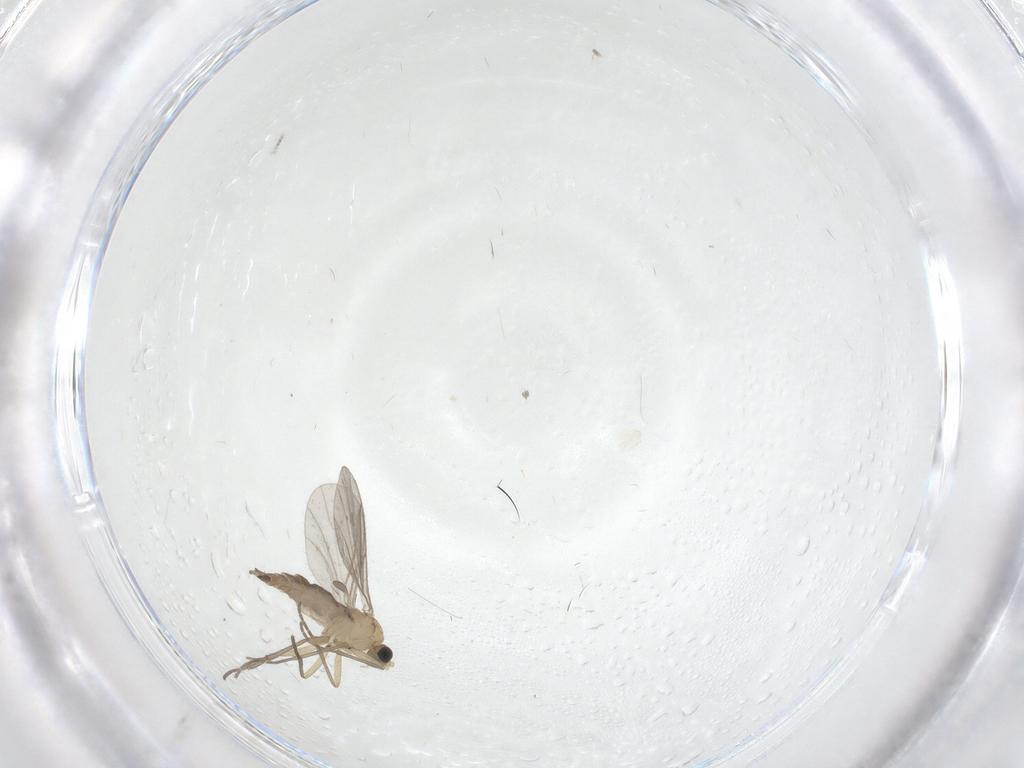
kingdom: Animalia
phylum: Arthropoda
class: Insecta
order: Diptera
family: Sciaridae
